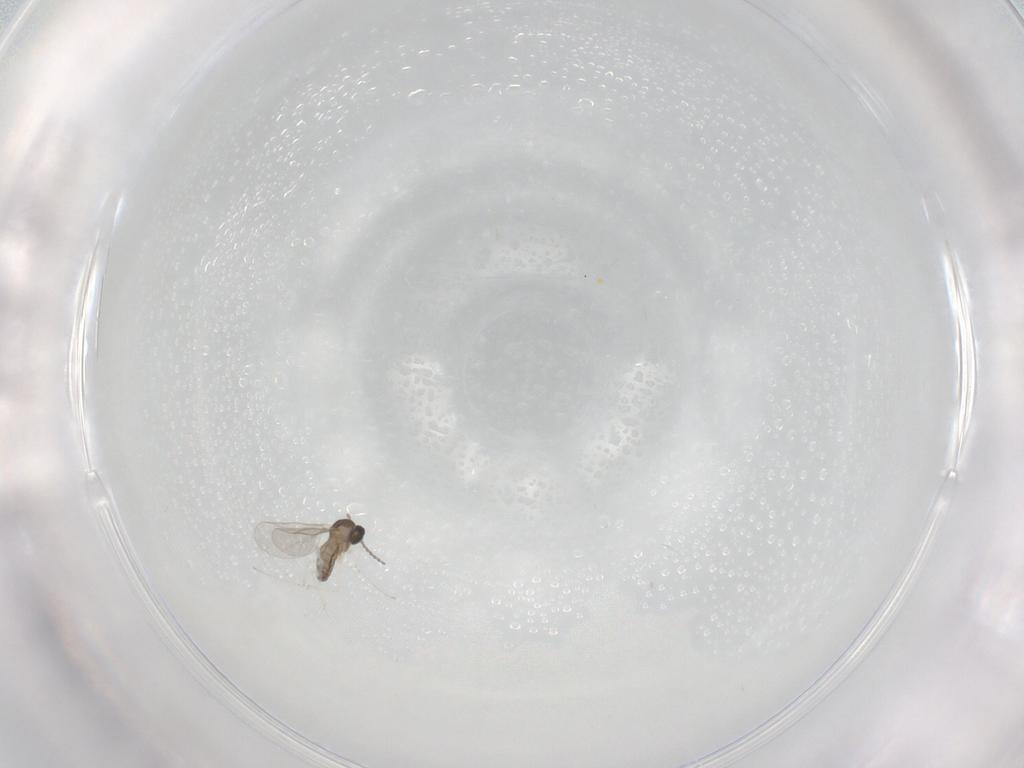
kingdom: Animalia
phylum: Arthropoda
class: Insecta
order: Diptera
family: Cecidomyiidae
